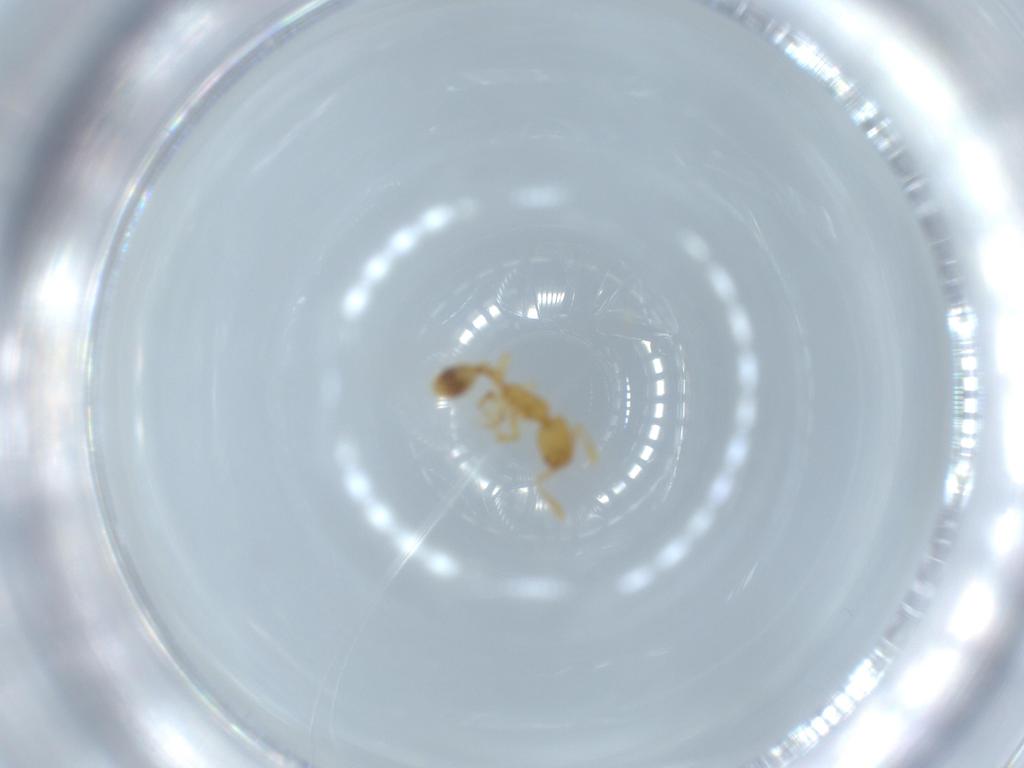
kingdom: Animalia
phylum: Arthropoda
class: Insecta
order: Hymenoptera
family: Formicidae
